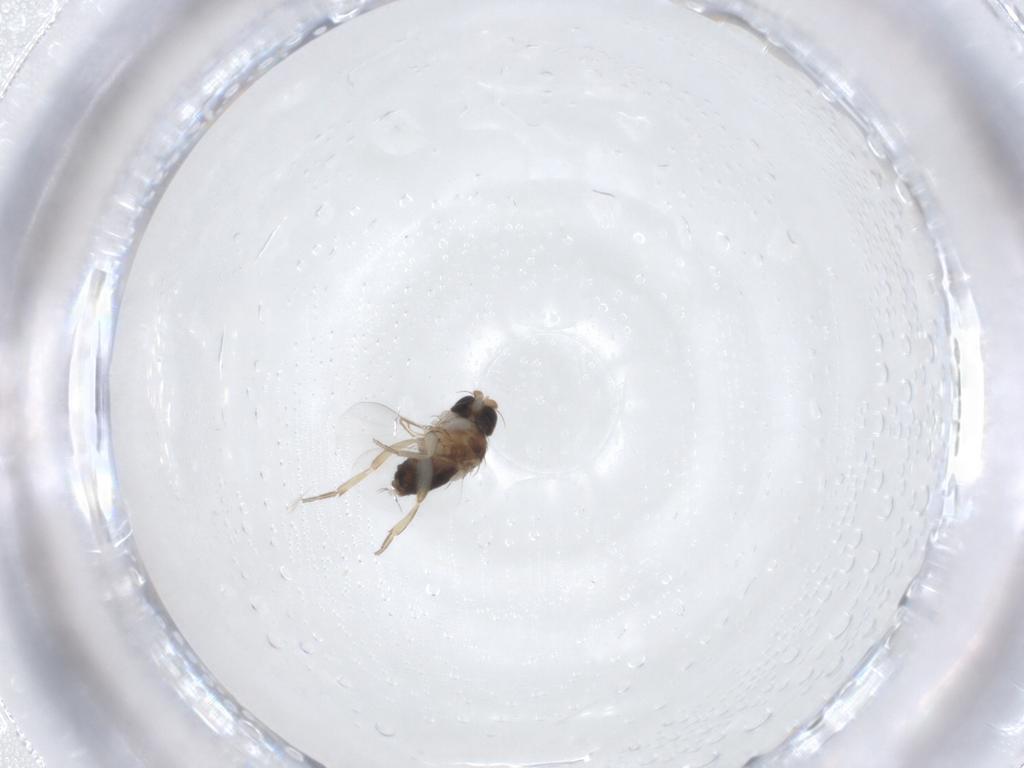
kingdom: Animalia
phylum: Arthropoda
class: Insecta
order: Diptera
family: Phoridae
